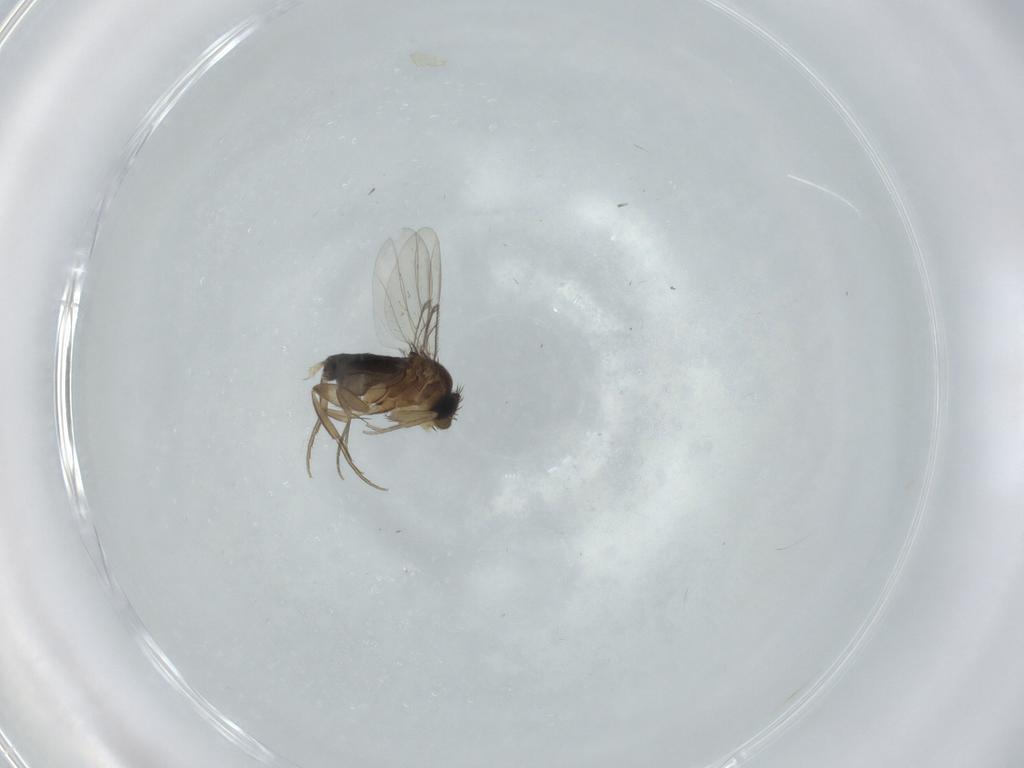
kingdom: Animalia
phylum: Arthropoda
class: Insecta
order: Diptera
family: Phoridae
